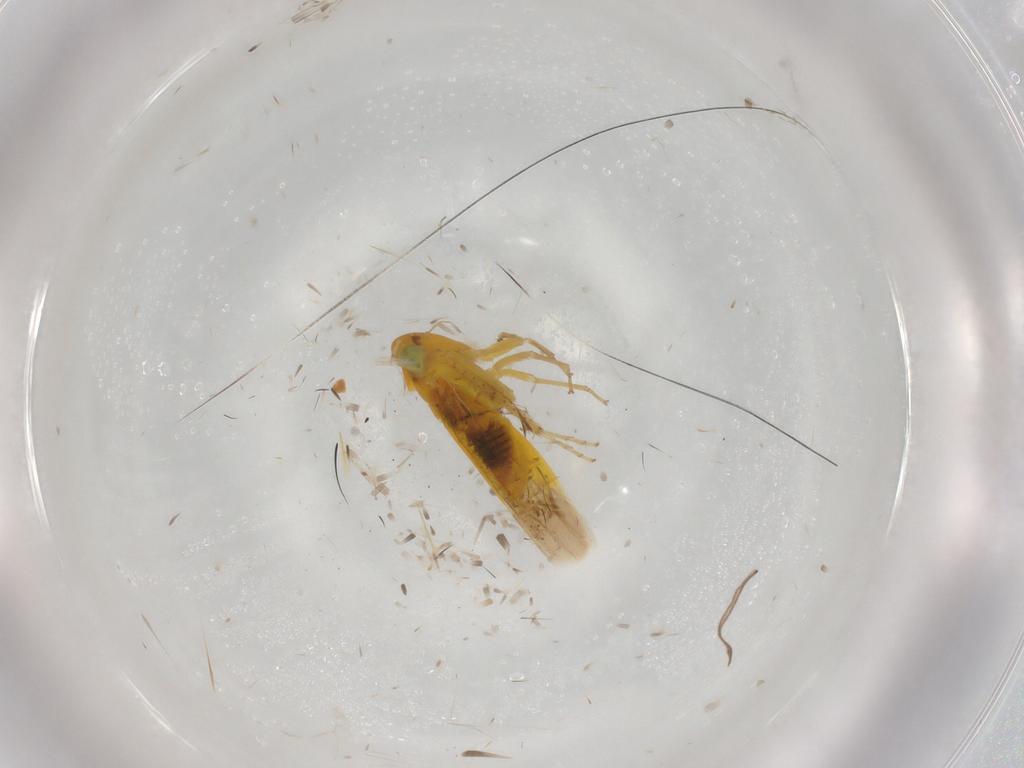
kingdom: Animalia
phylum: Arthropoda
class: Insecta
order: Hemiptera
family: Cicadellidae
